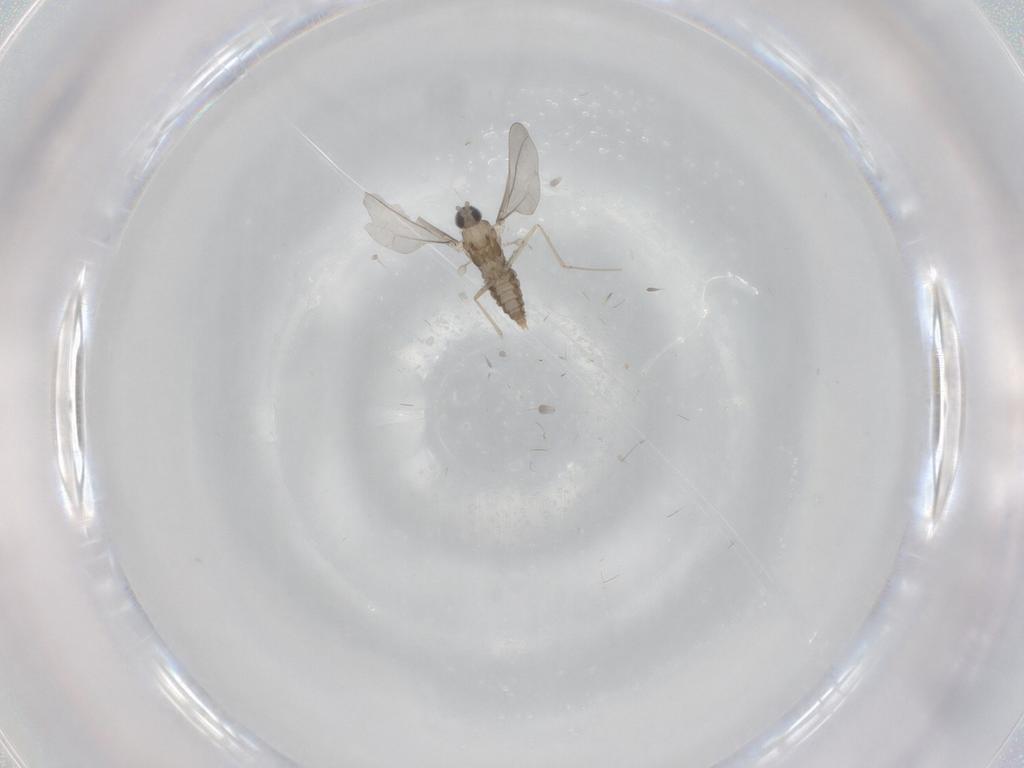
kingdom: Animalia
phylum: Arthropoda
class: Insecta
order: Diptera
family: Cecidomyiidae
